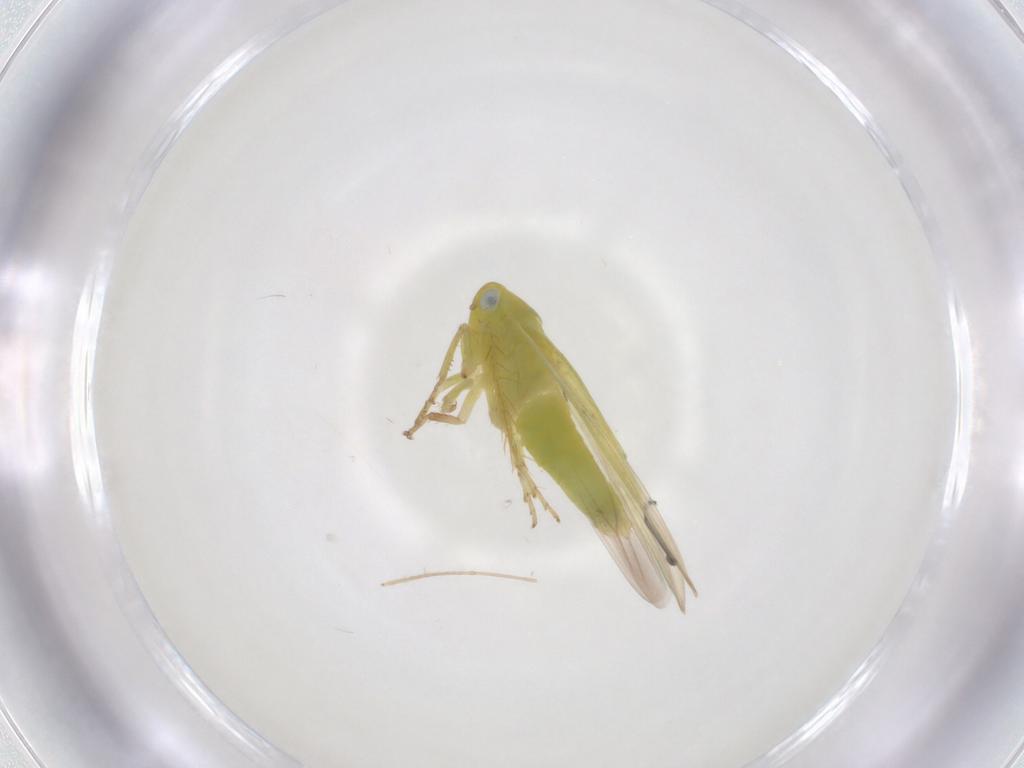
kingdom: Animalia
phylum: Arthropoda
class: Insecta
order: Hemiptera
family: Cicadellidae
